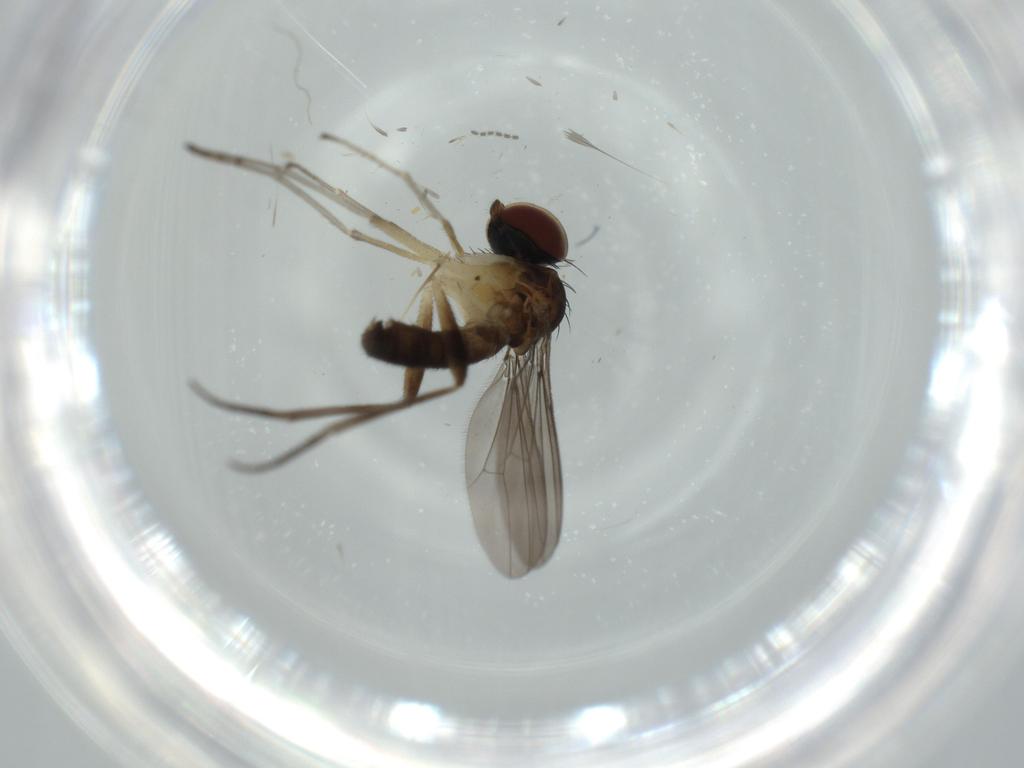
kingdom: Animalia
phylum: Arthropoda
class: Insecta
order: Diptera
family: Dolichopodidae
